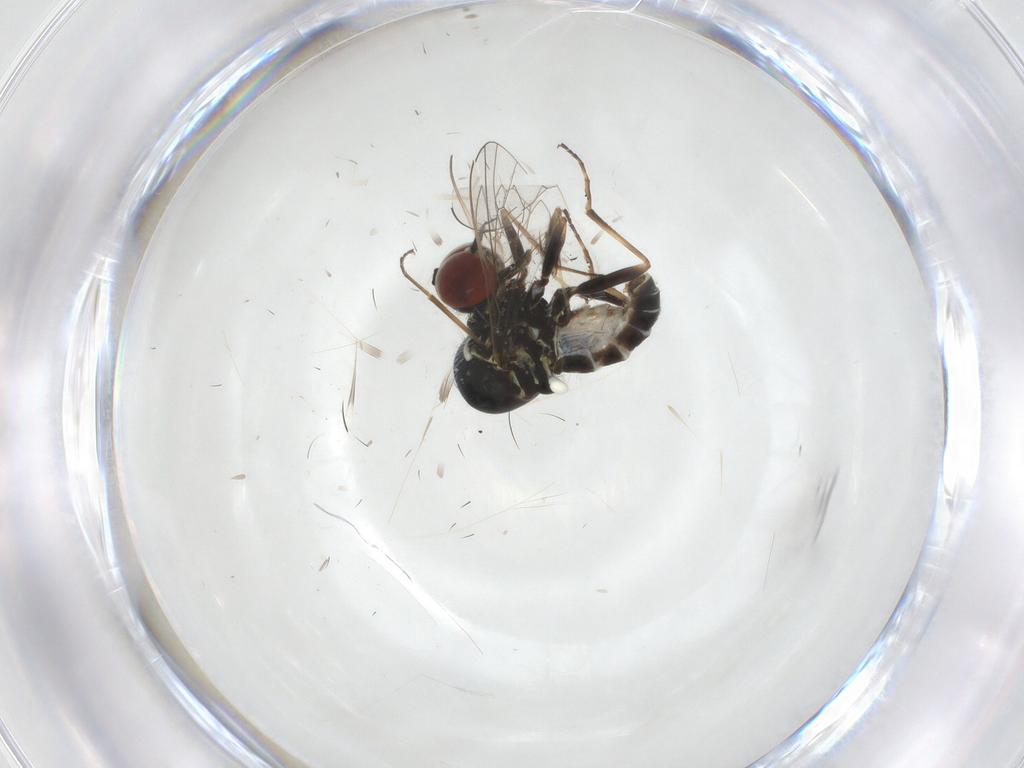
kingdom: Animalia
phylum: Arthropoda
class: Insecta
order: Diptera
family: Bombyliidae
